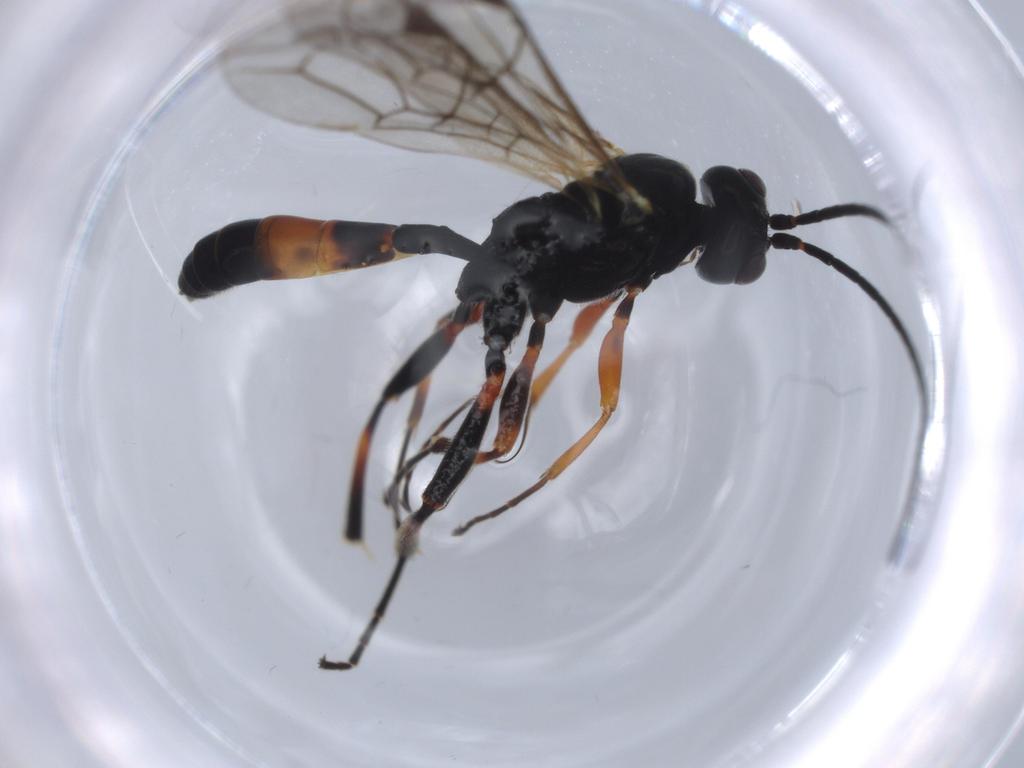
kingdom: Animalia
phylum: Arthropoda
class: Insecta
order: Hymenoptera
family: Ichneumonidae
